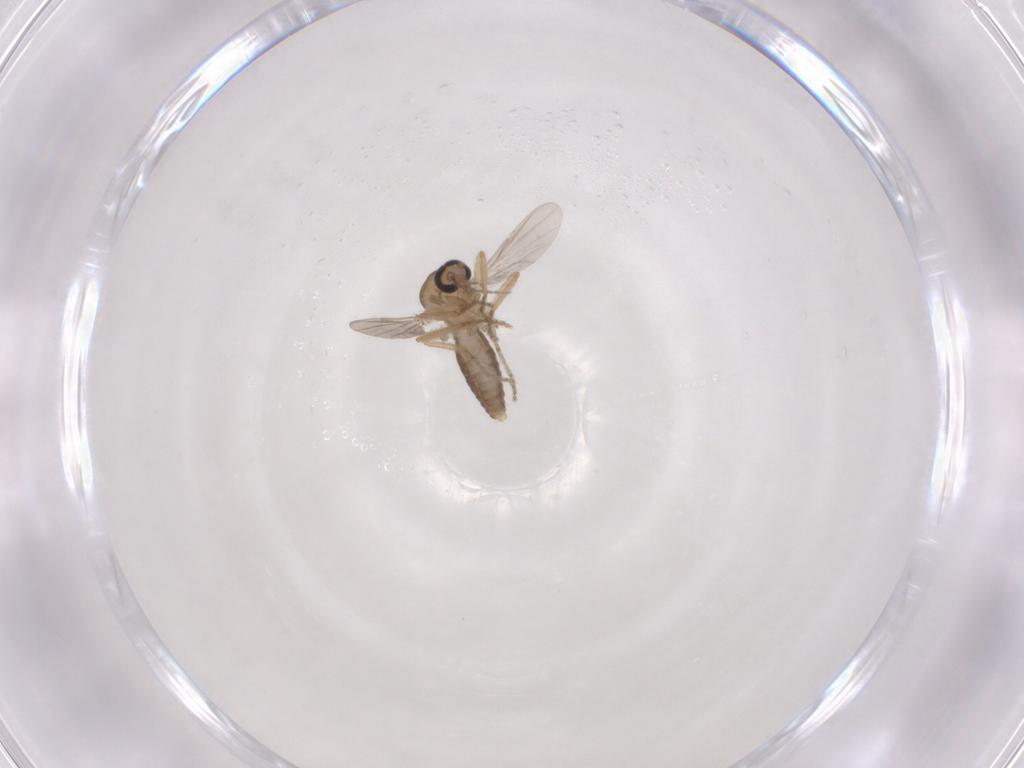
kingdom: Animalia
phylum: Arthropoda
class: Insecta
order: Diptera
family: Ceratopogonidae
